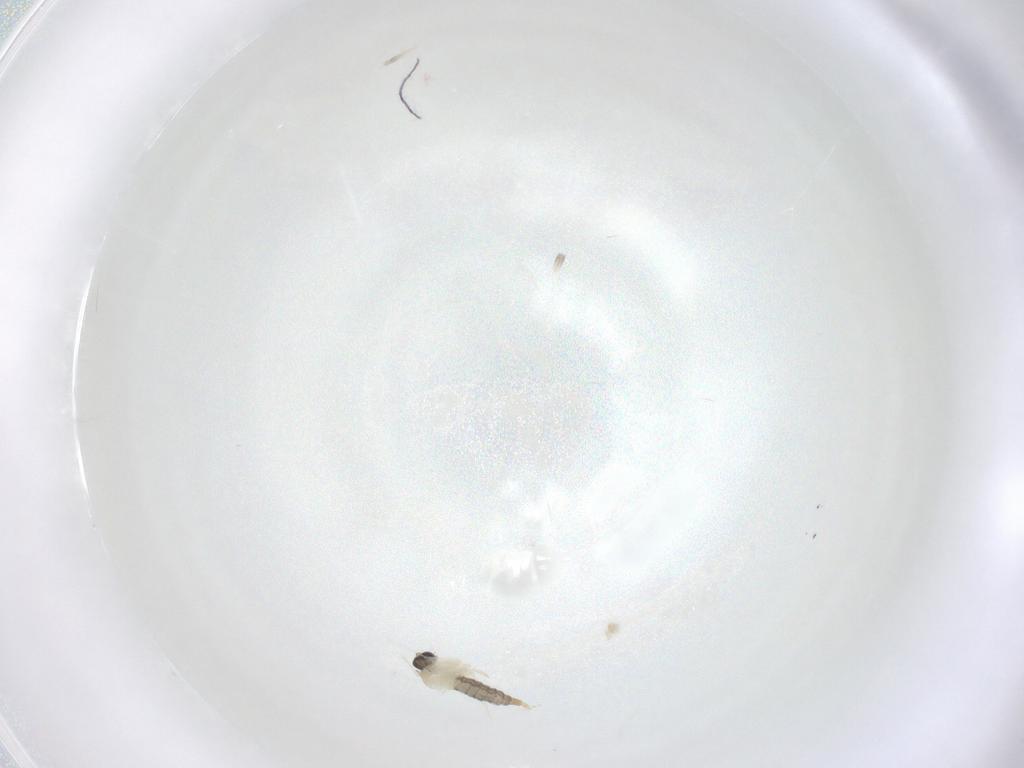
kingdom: Animalia
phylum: Arthropoda
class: Insecta
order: Diptera
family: Cecidomyiidae
